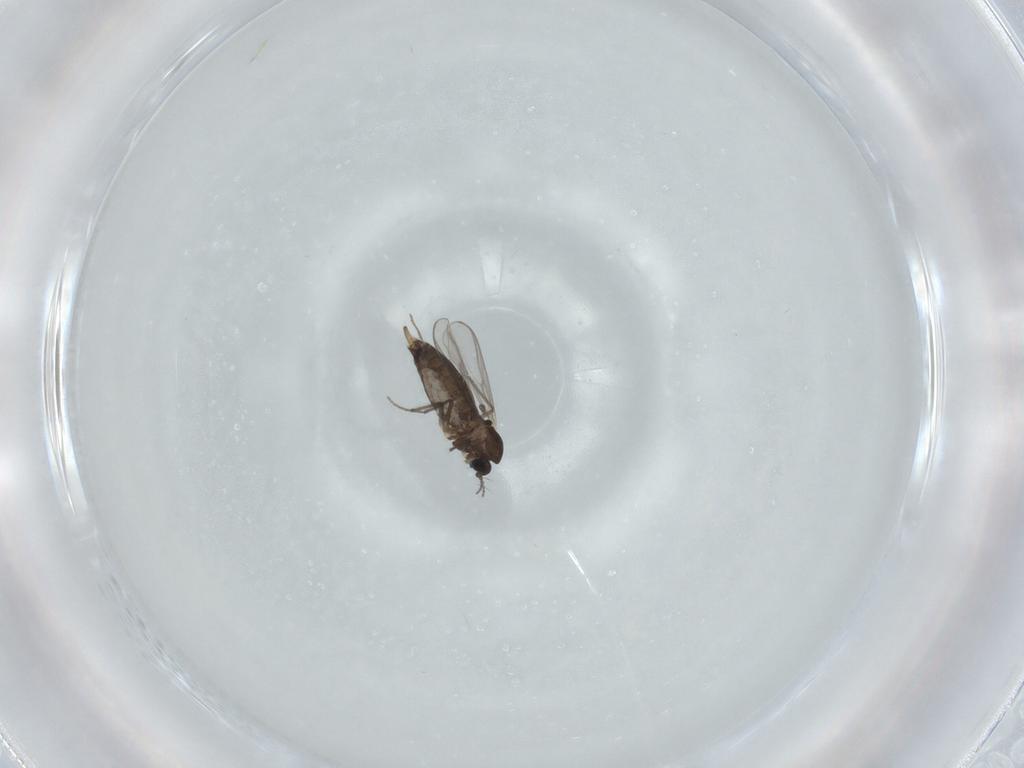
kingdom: Animalia
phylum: Arthropoda
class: Insecta
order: Diptera
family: Chironomidae
